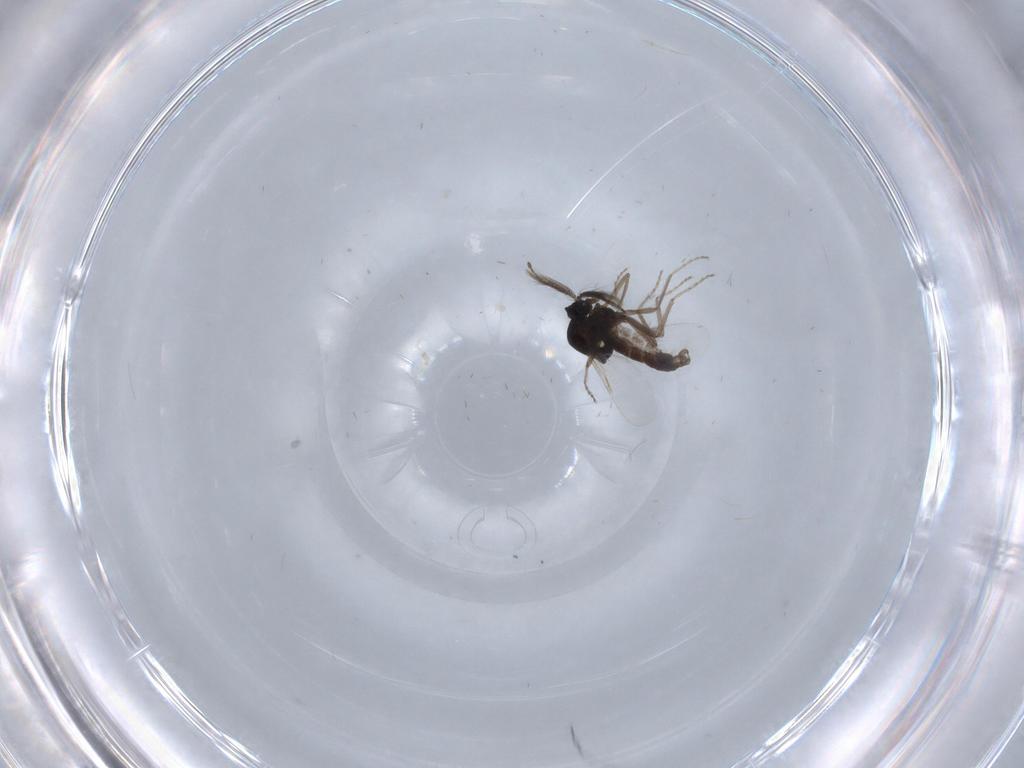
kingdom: Animalia
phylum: Arthropoda
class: Insecta
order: Diptera
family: Ceratopogonidae
